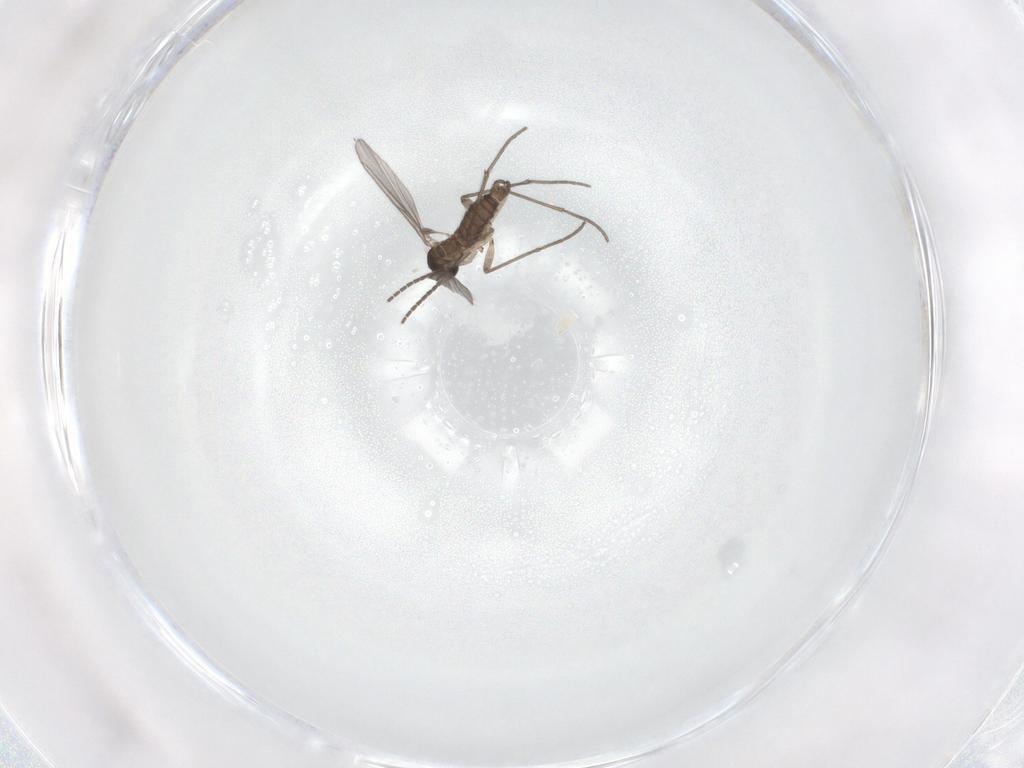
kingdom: Animalia
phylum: Arthropoda
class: Insecta
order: Diptera
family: Sciaridae
